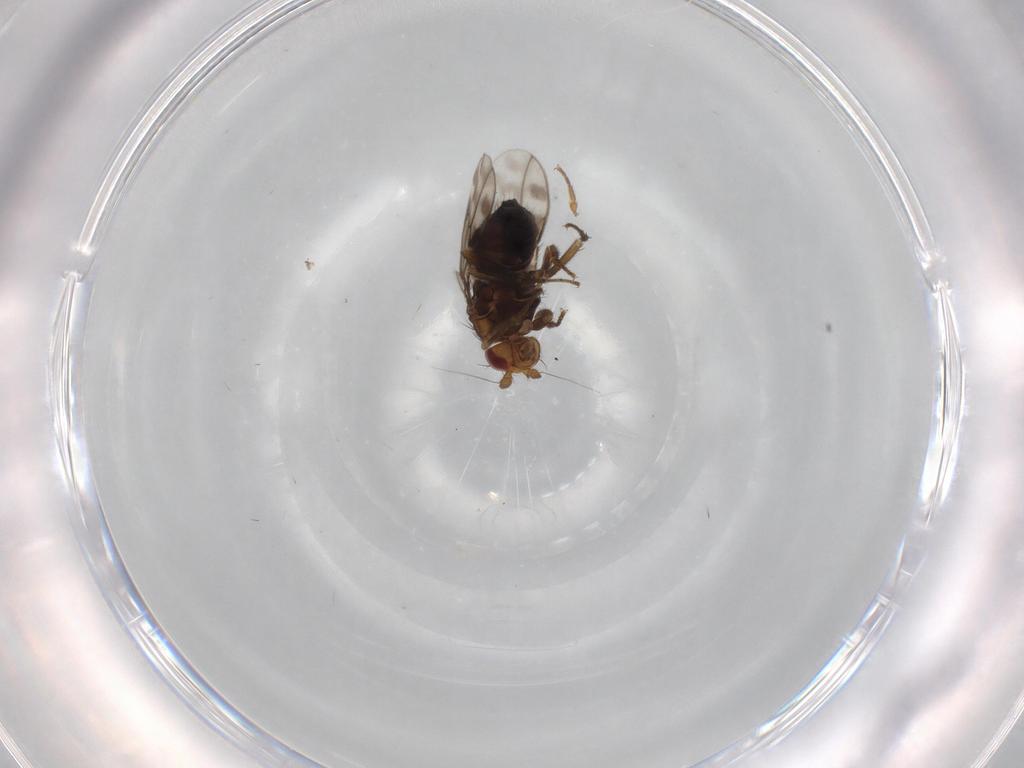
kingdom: Animalia
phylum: Arthropoda
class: Insecta
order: Diptera
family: Sphaeroceridae
